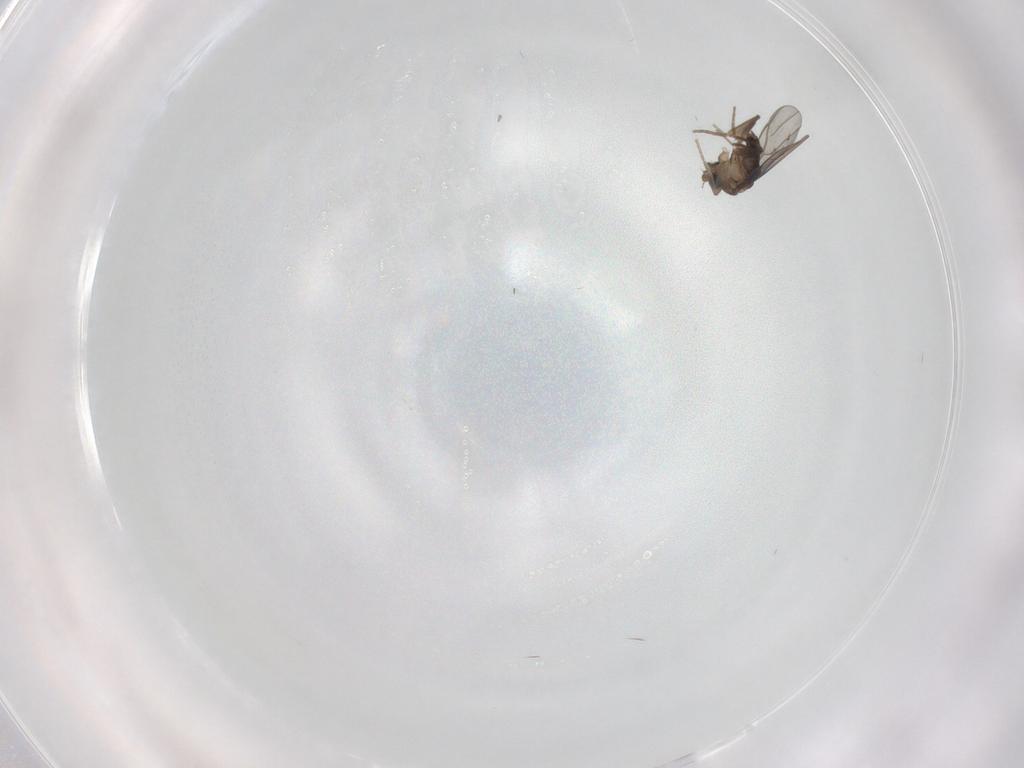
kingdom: Animalia
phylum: Arthropoda
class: Insecta
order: Diptera
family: Phoridae
